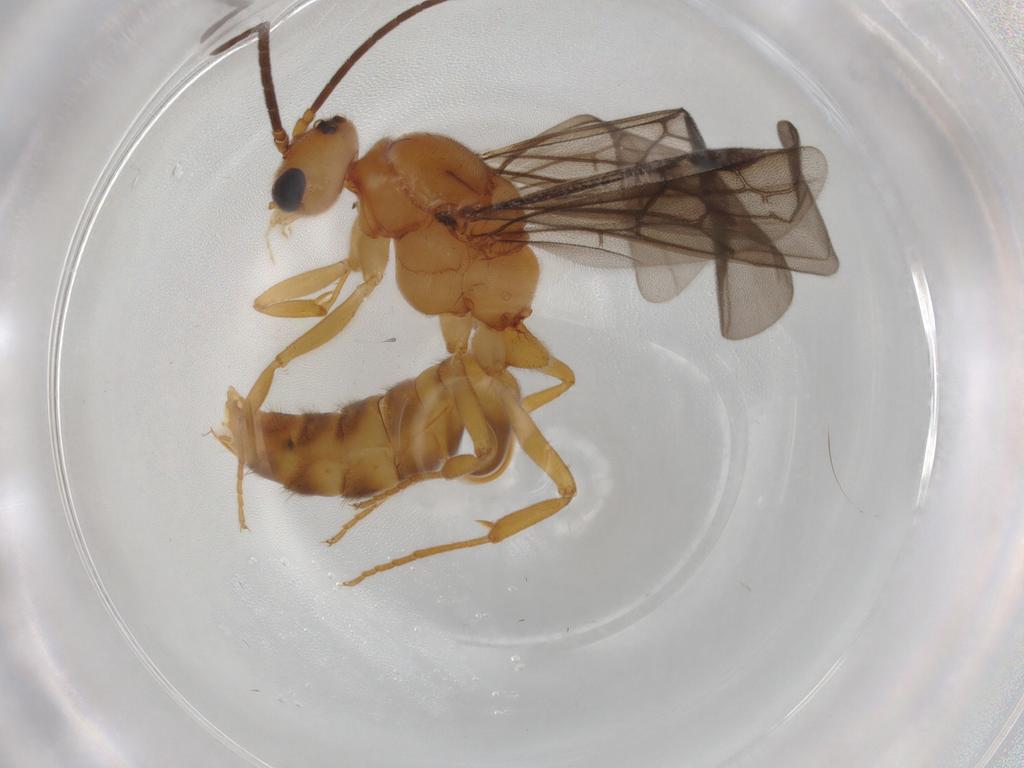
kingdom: Animalia
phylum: Arthropoda
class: Insecta
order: Hymenoptera
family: Formicidae
